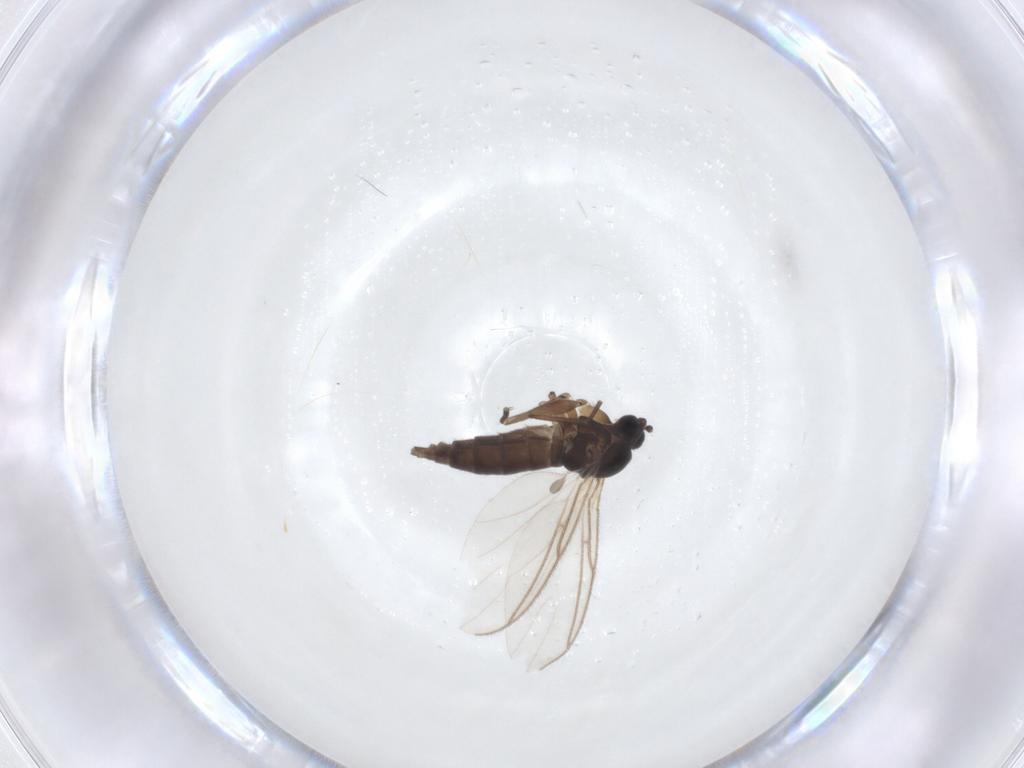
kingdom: Animalia
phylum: Arthropoda
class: Insecta
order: Diptera
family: Sciaridae
